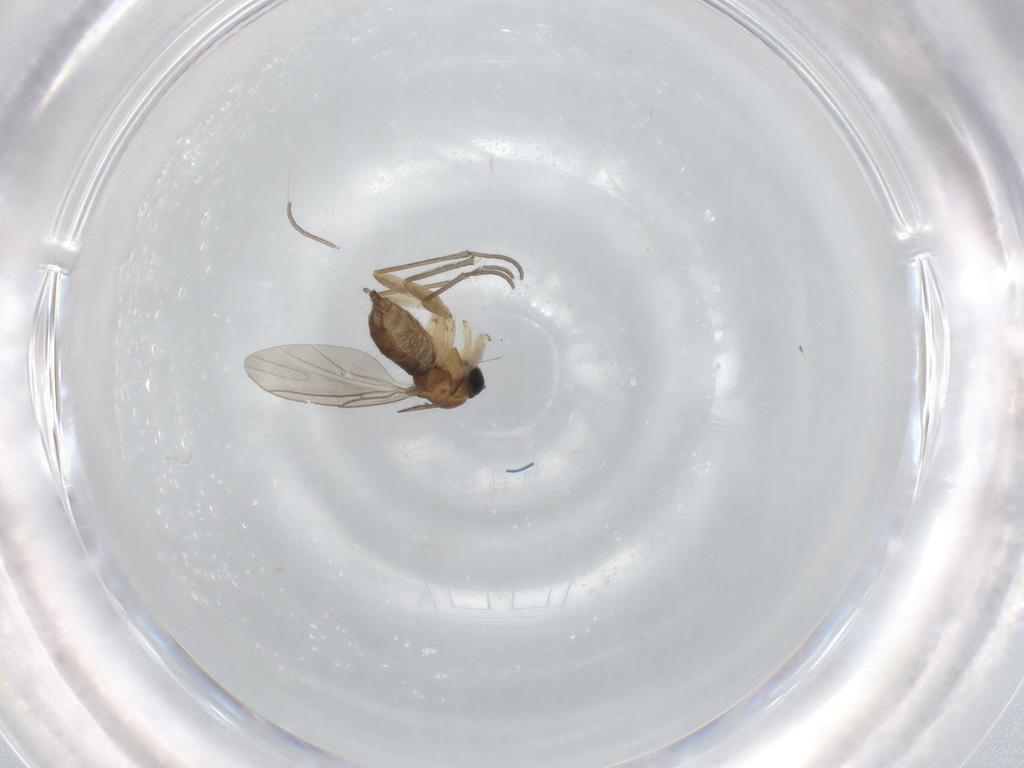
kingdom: Animalia
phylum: Arthropoda
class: Insecta
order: Diptera
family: Sciaridae
